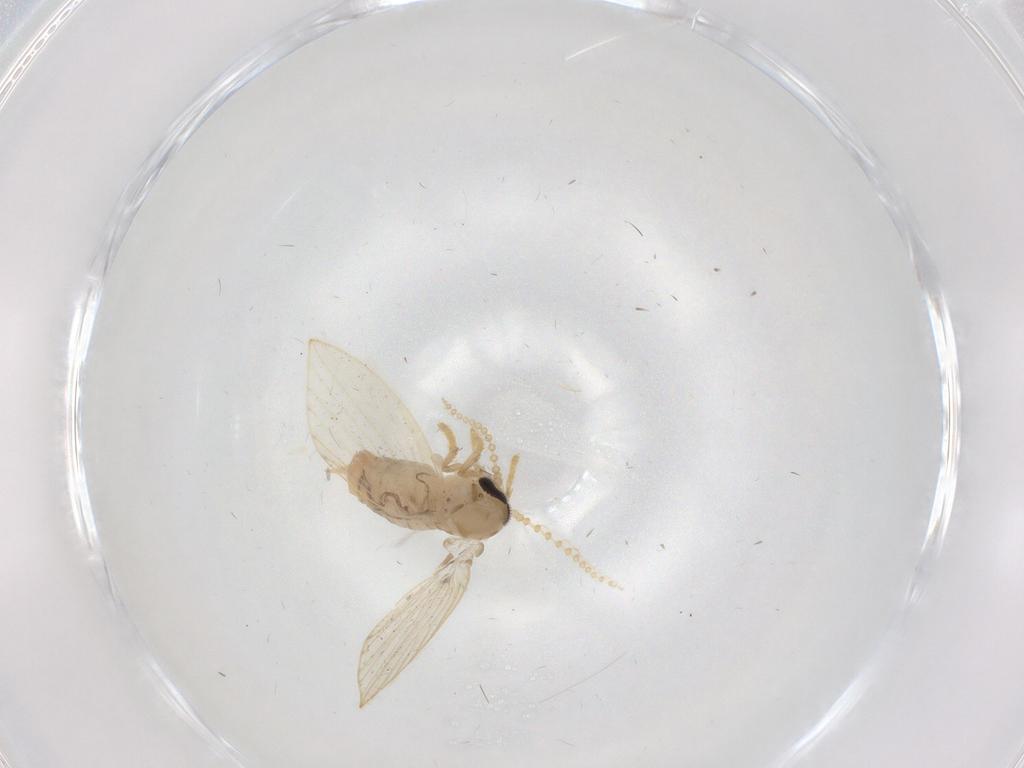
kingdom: Animalia
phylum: Arthropoda
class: Insecta
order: Diptera
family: Psychodidae
